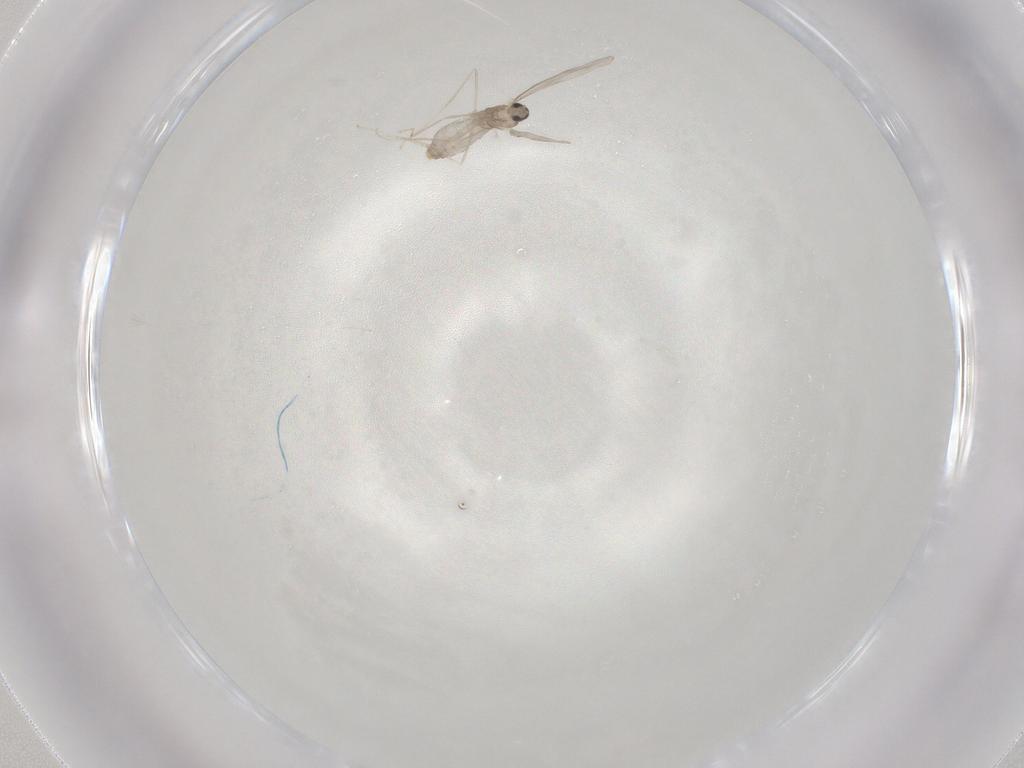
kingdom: Animalia
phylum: Arthropoda
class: Insecta
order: Diptera
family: Cecidomyiidae
